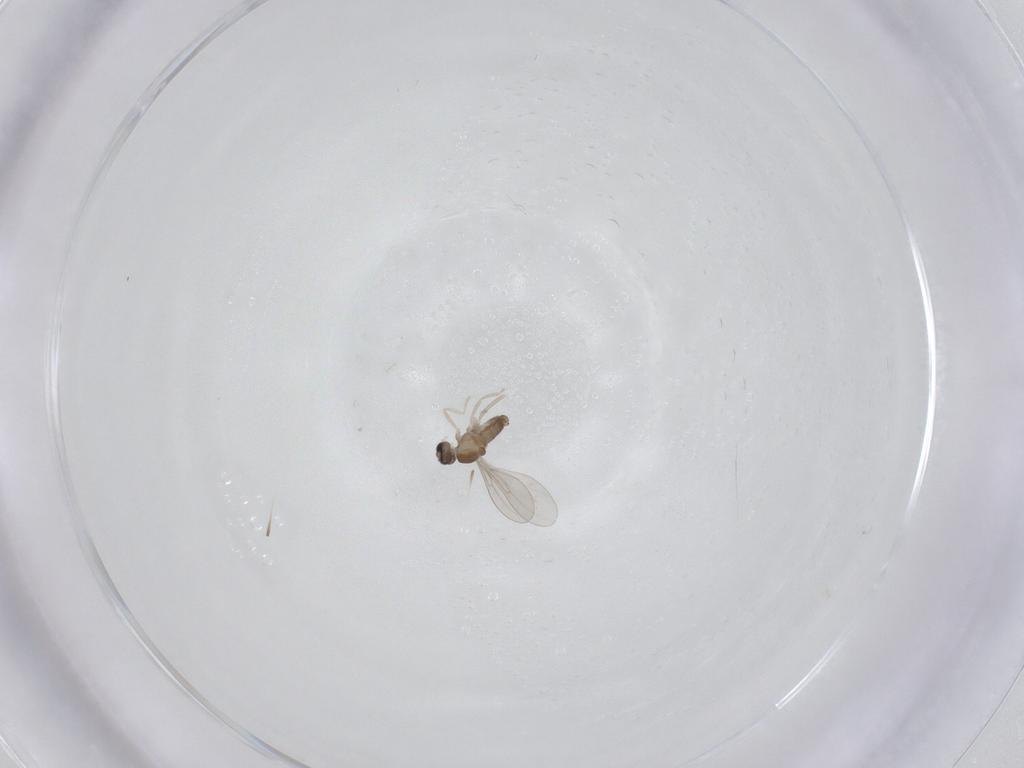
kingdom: Animalia
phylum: Arthropoda
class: Insecta
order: Diptera
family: Cecidomyiidae
